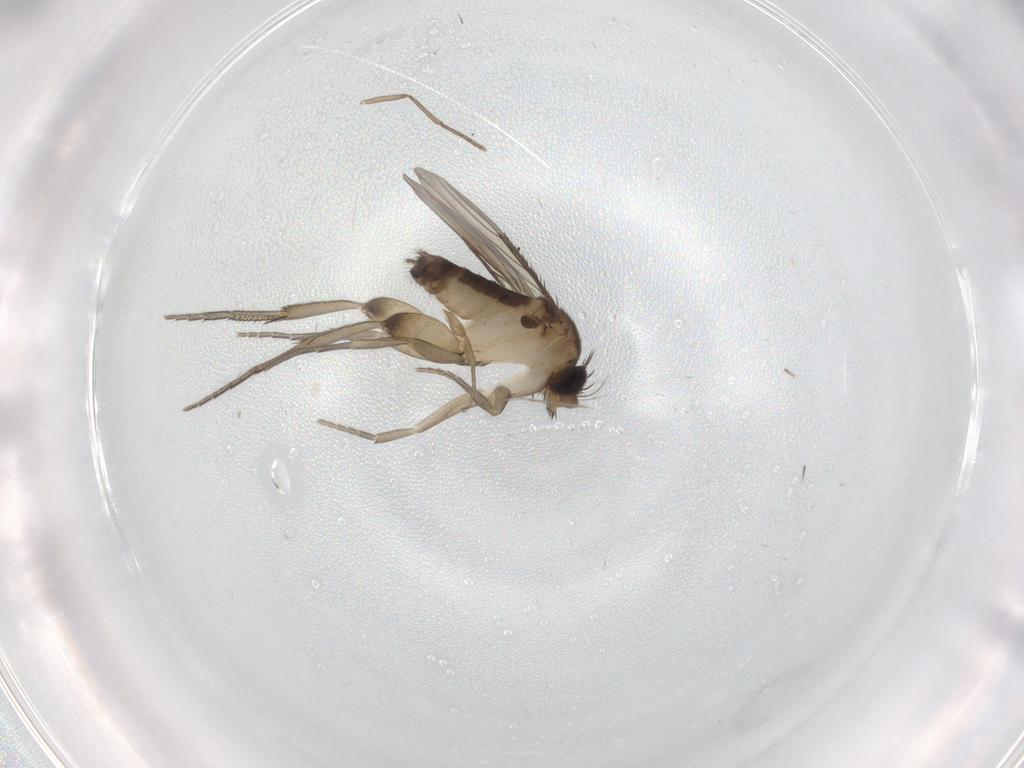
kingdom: Animalia
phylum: Arthropoda
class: Insecta
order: Diptera
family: Phoridae
